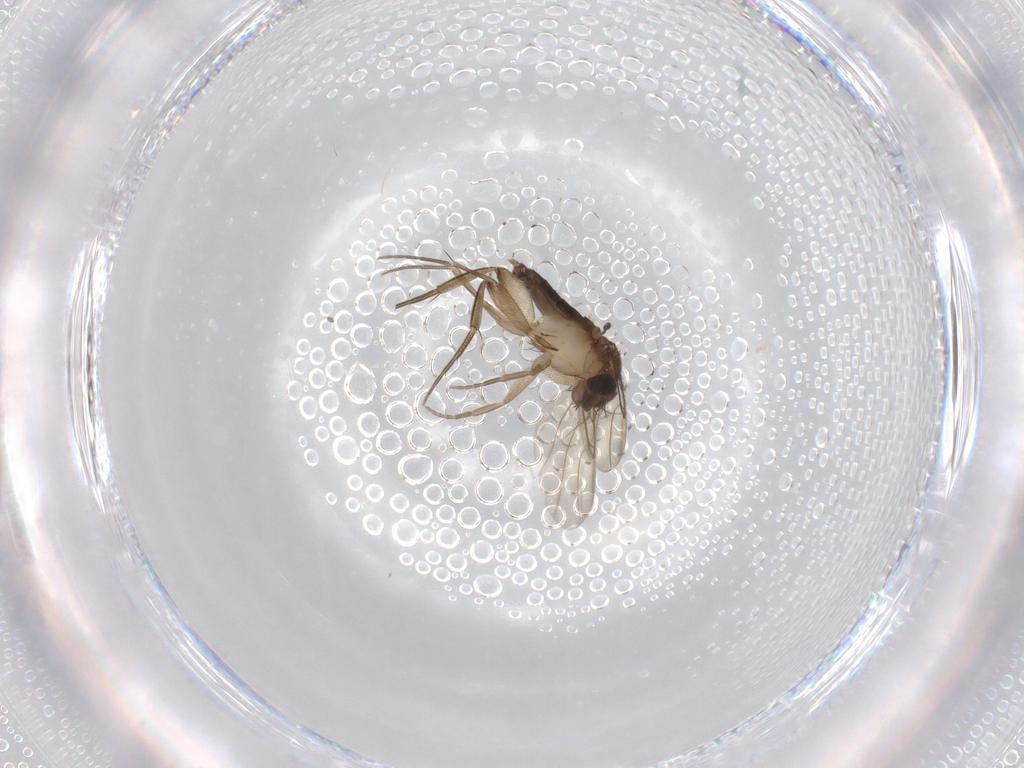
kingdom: Animalia
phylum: Arthropoda
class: Insecta
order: Diptera
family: Phoridae
